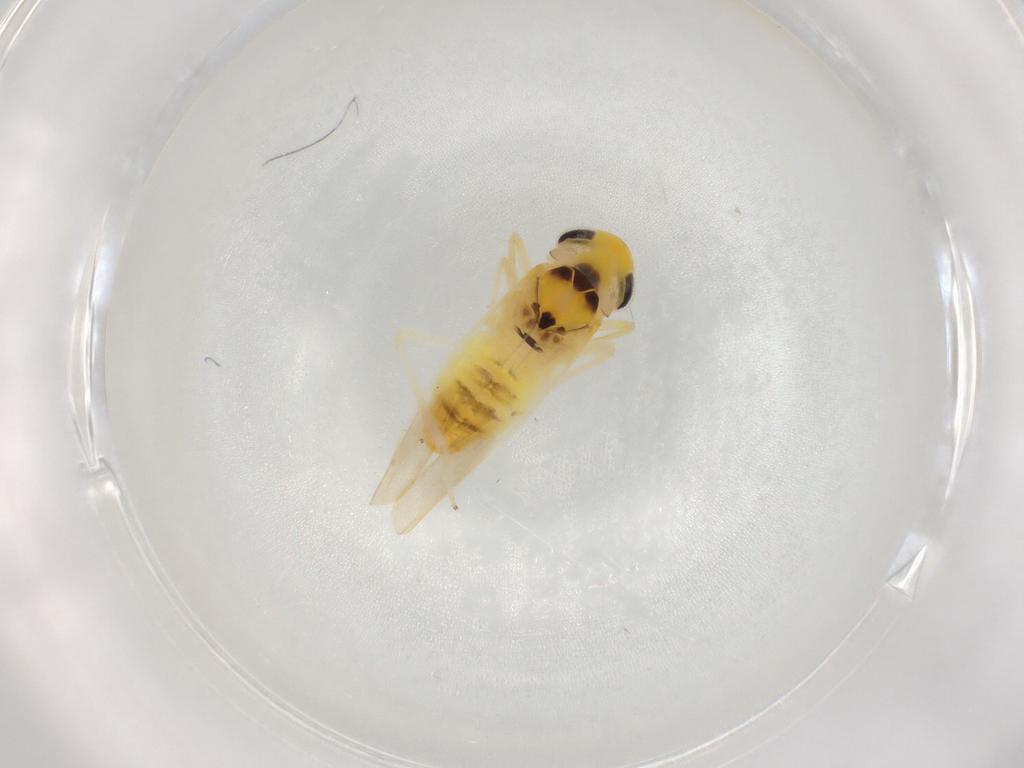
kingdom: Animalia
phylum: Arthropoda
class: Insecta
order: Hemiptera
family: Cicadellidae
